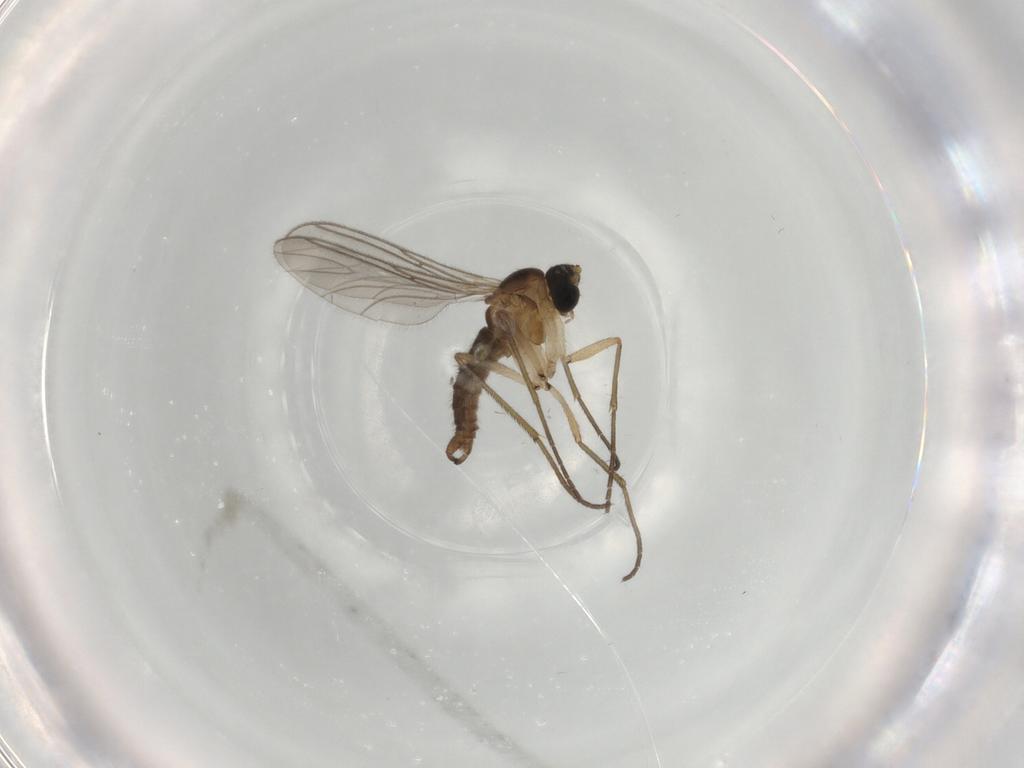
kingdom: Animalia
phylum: Arthropoda
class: Insecta
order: Diptera
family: Sciaridae
